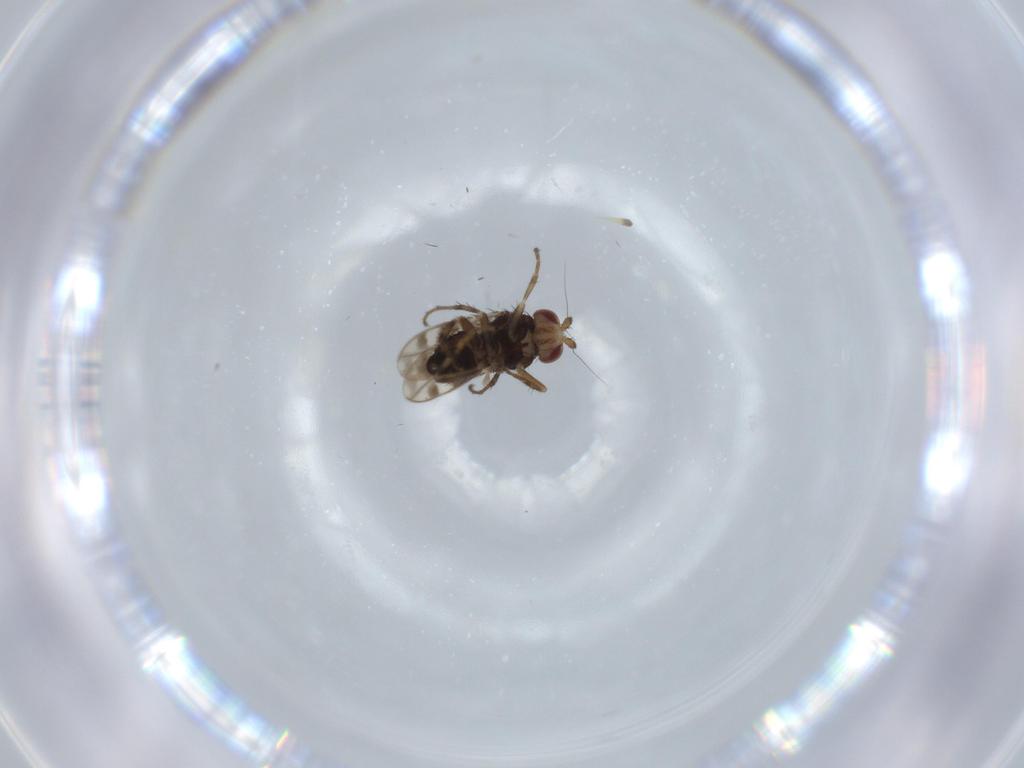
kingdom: Animalia
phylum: Arthropoda
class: Insecta
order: Diptera
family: Sphaeroceridae
